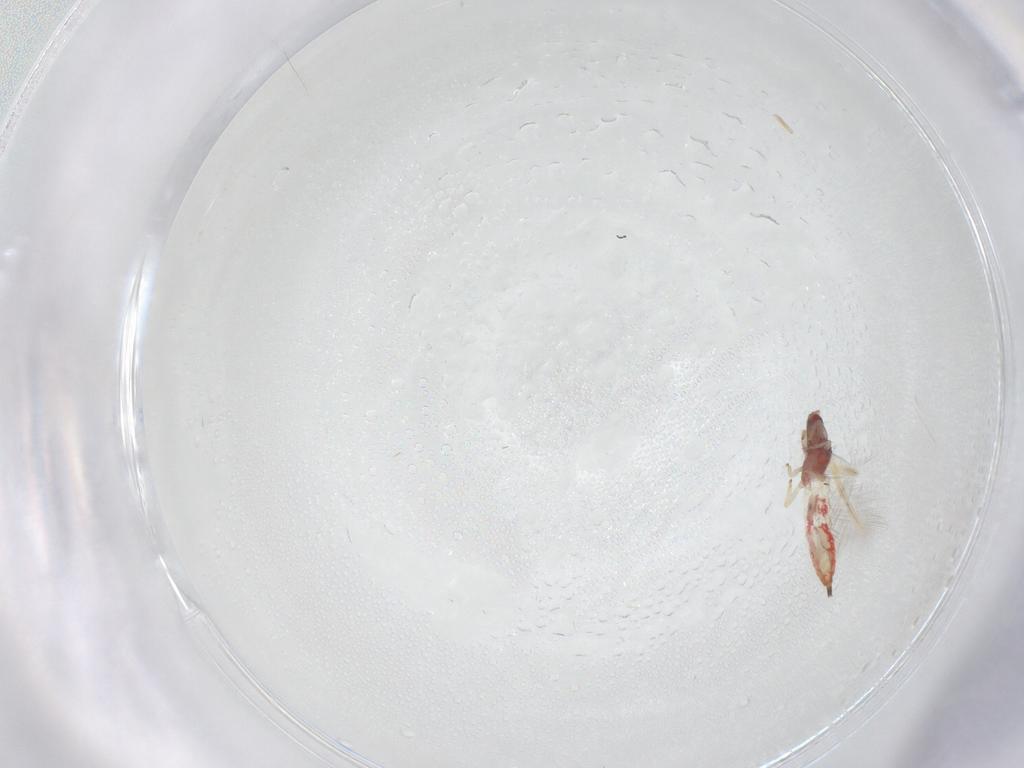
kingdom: Animalia
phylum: Arthropoda
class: Insecta
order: Thysanoptera
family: Phlaeothripidae
